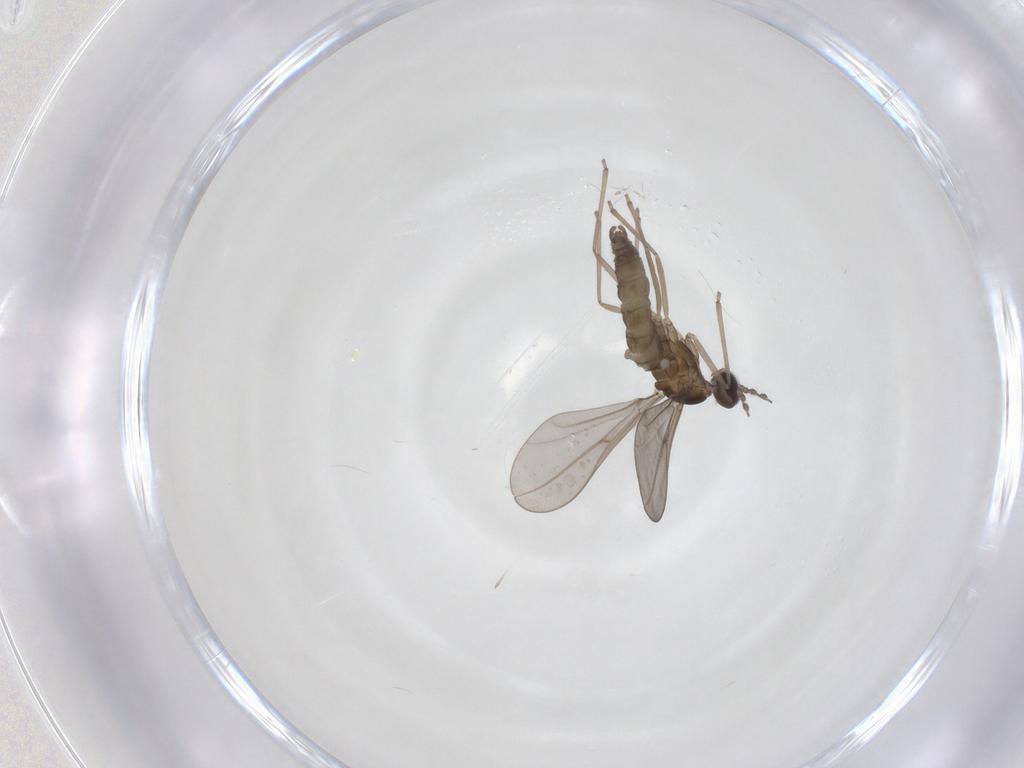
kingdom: Animalia
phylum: Arthropoda
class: Insecta
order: Diptera
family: Cecidomyiidae
